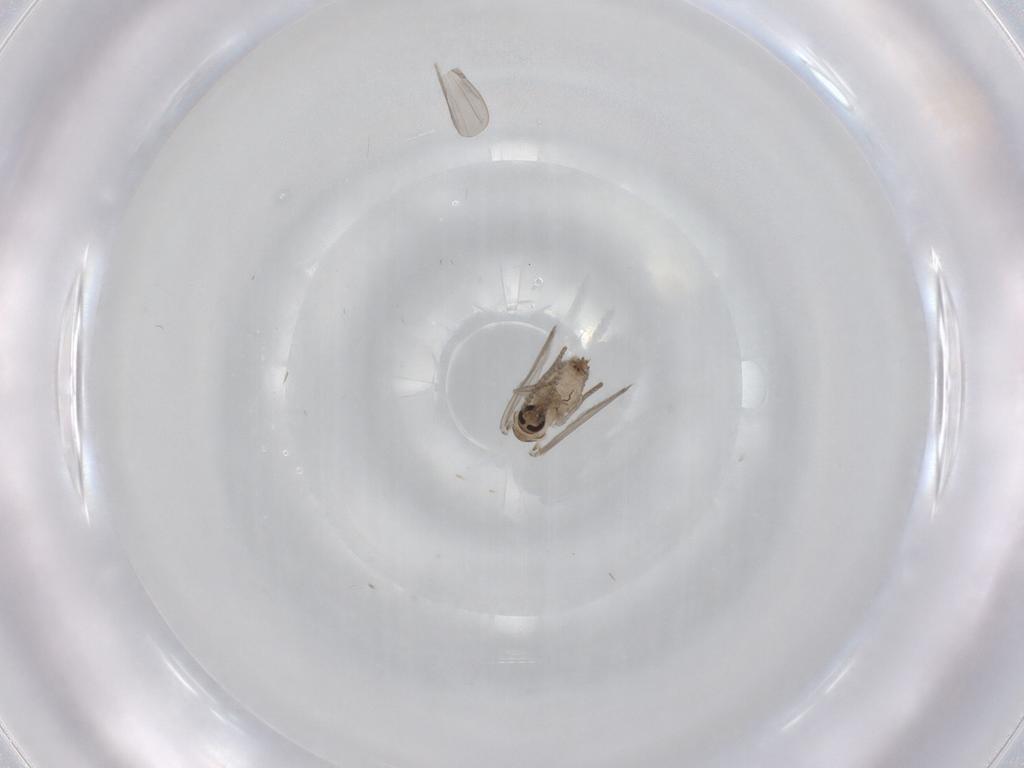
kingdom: Animalia
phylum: Arthropoda
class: Insecta
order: Diptera
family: Psychodidae
